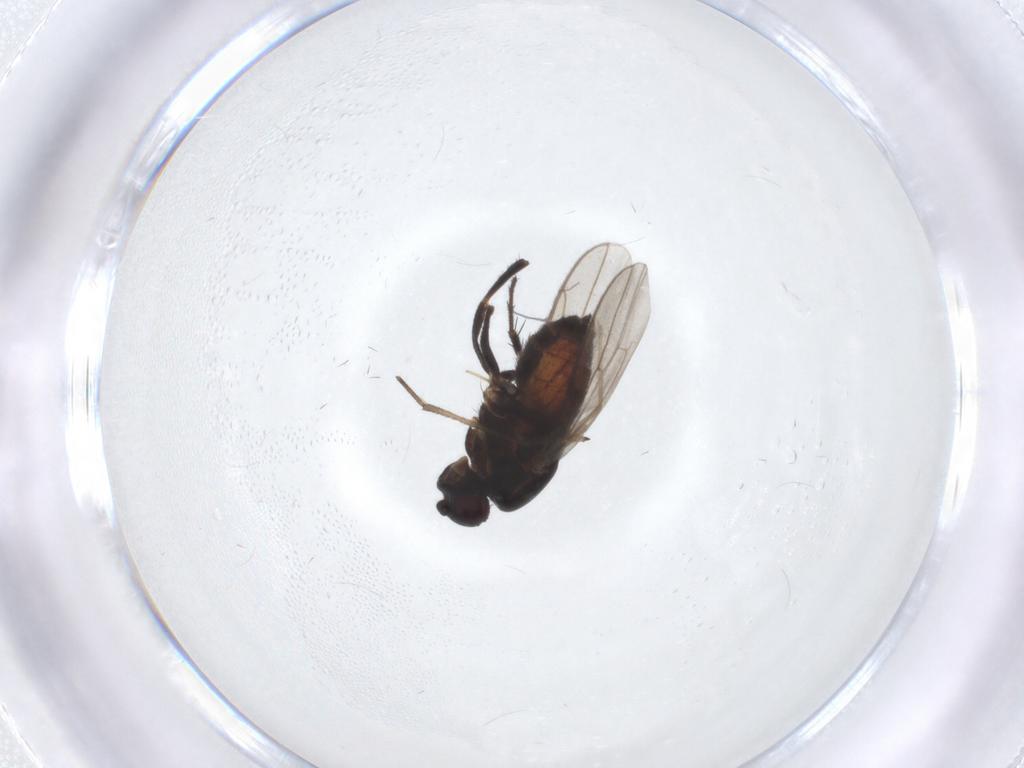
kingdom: Animalia
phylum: Arthropoda
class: Insecta
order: Diptera
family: Sphaeroceridae
